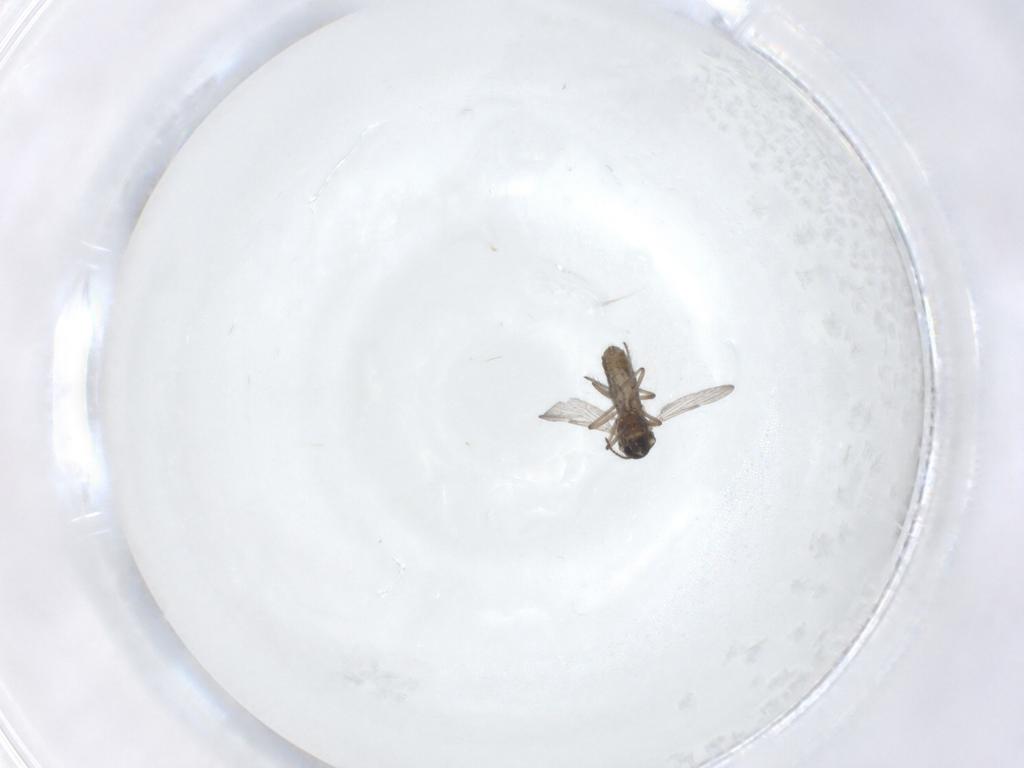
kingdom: Animalia
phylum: Arthropoda
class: Insecta
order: Diptera
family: Ceratopogonidae
